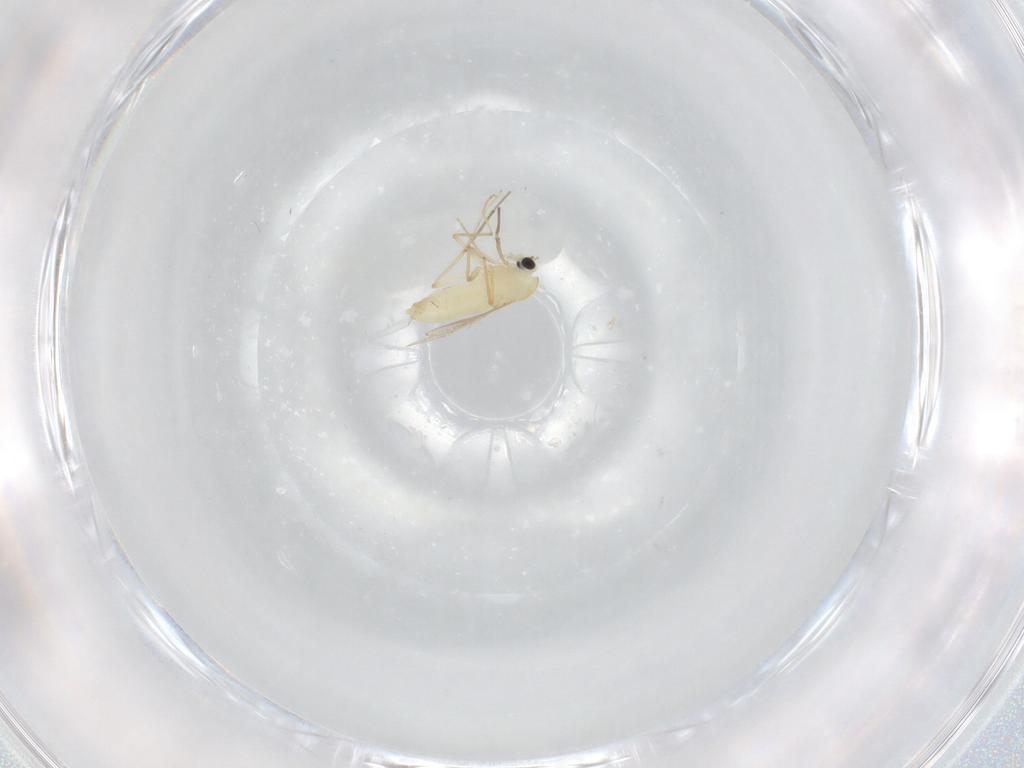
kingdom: Animalia
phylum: Arthropoda
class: Insecta
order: Diptera
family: Chironomidae
